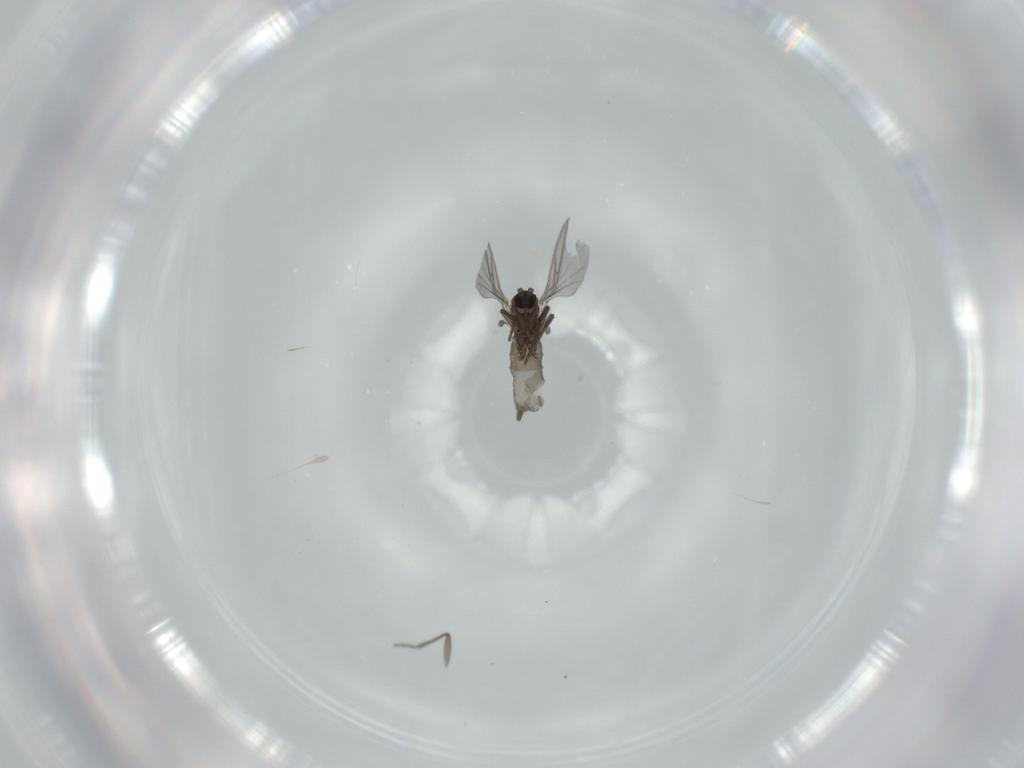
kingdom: Animalia
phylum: Arthropoda
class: Insecta
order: Diptera
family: Sciaridae
